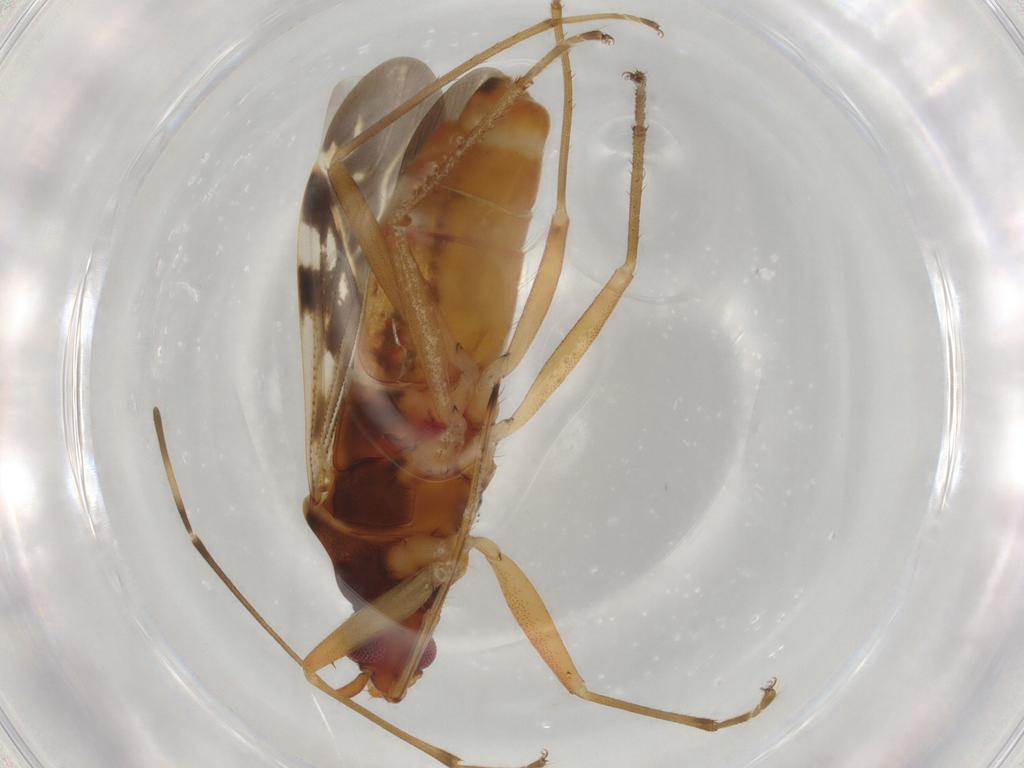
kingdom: Animalia
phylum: Arthropoda
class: Insecta
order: Hemiptera
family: Rhyparochromidae
